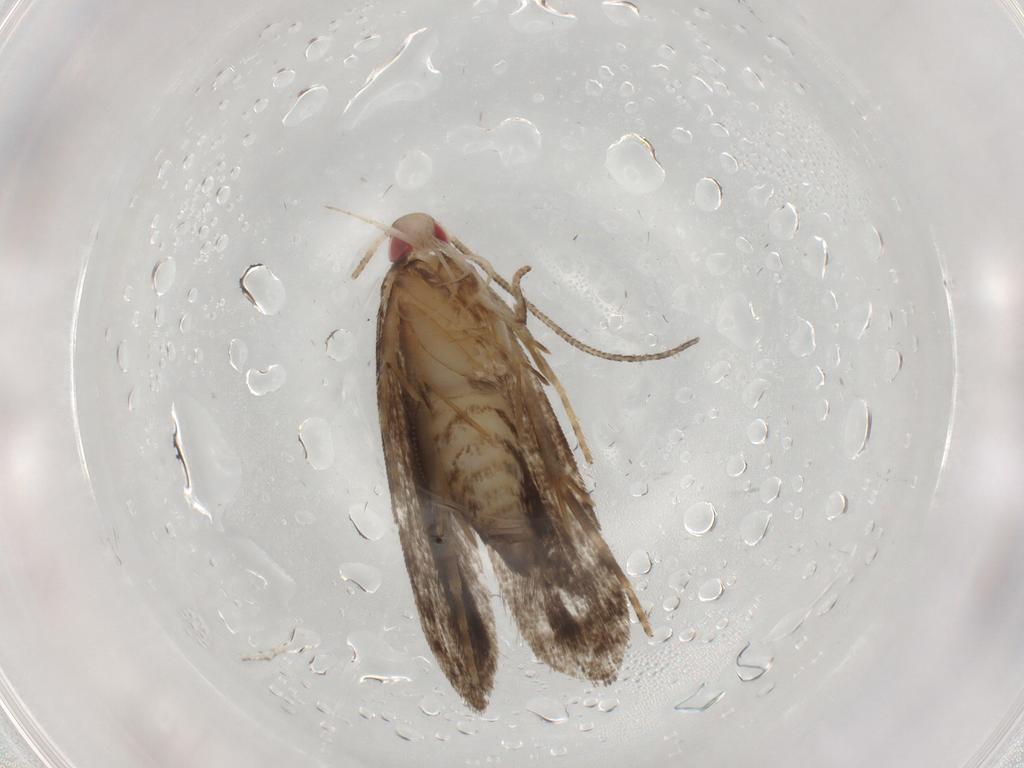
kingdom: Animalia
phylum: Arthropoda
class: Insecta
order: Lepidoptera
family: Gelechiidae
